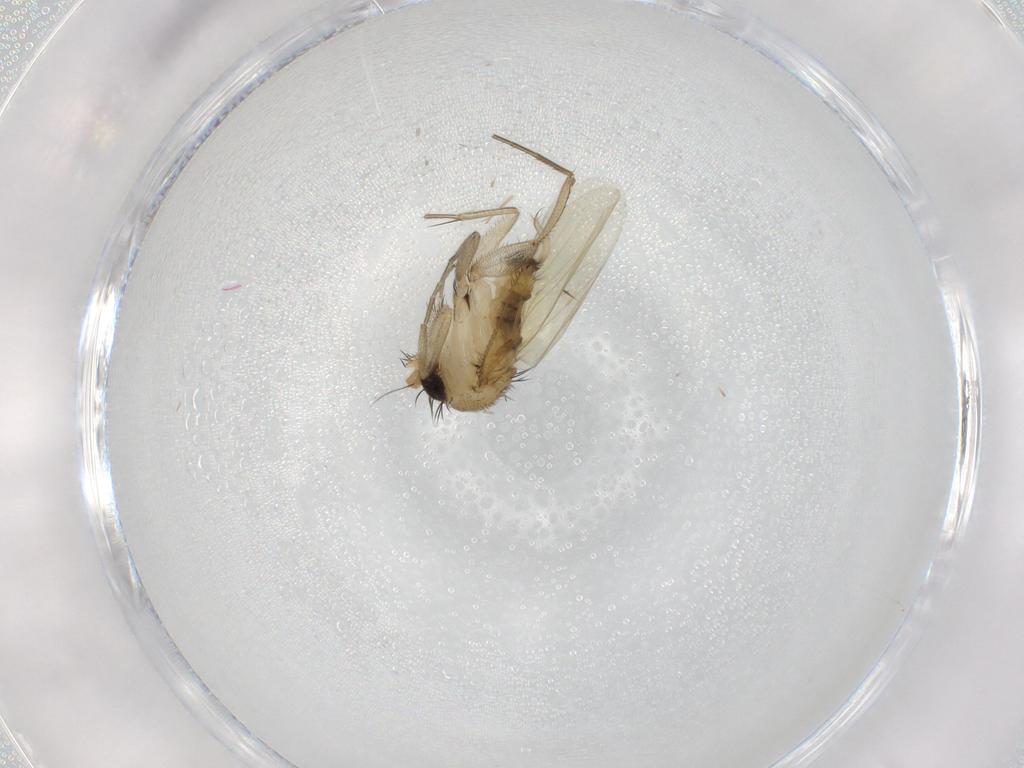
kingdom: Animalia
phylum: Arthropoda
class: Insecta
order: Diptera
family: Phoridae
